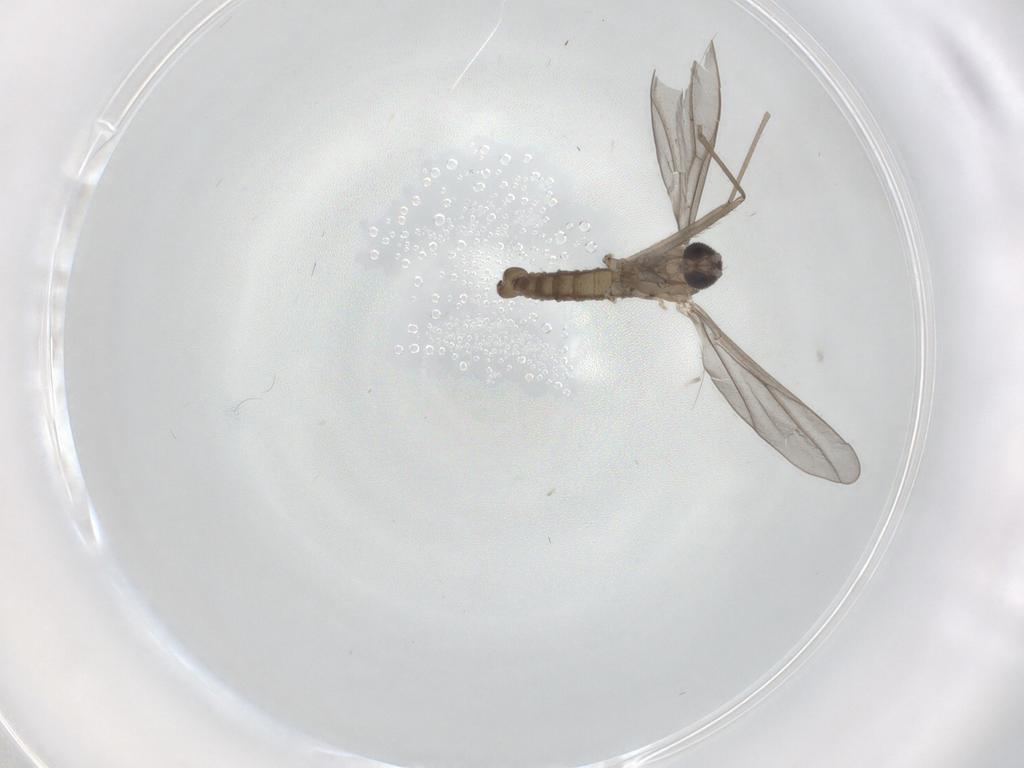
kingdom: Animalia
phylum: Arthropoda
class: Insecta
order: Diptera
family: Cecidomyiidae
